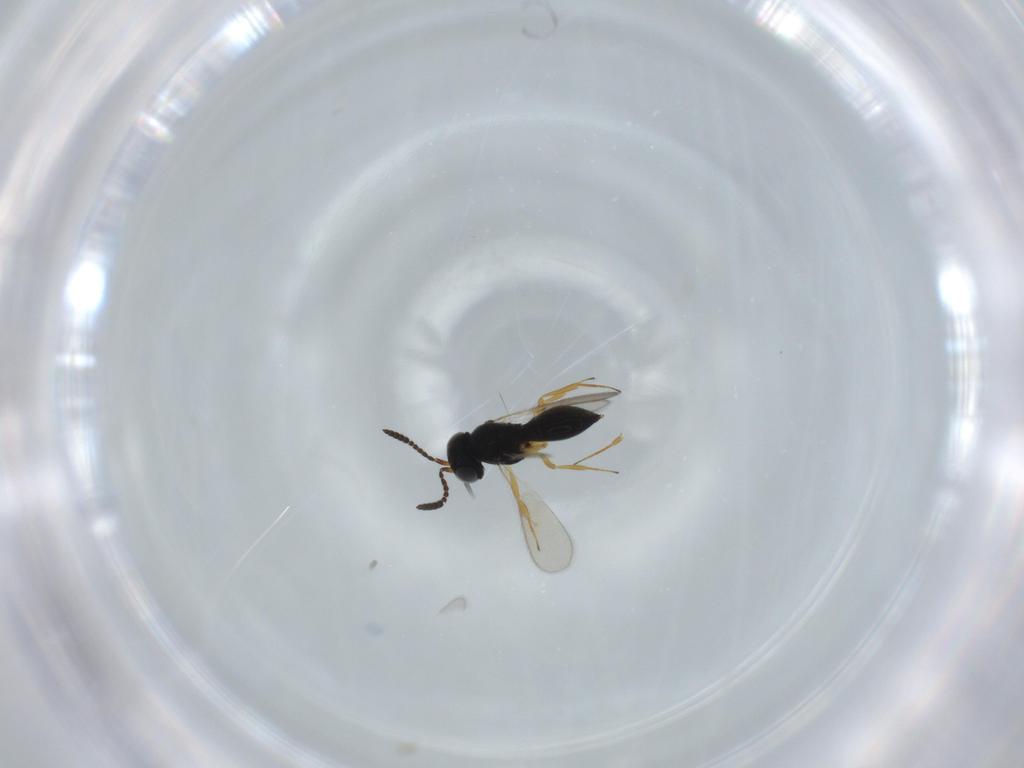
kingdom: Animalia
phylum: Arthropoda
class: Insecta
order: Hymenoptera
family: Scelionidae
